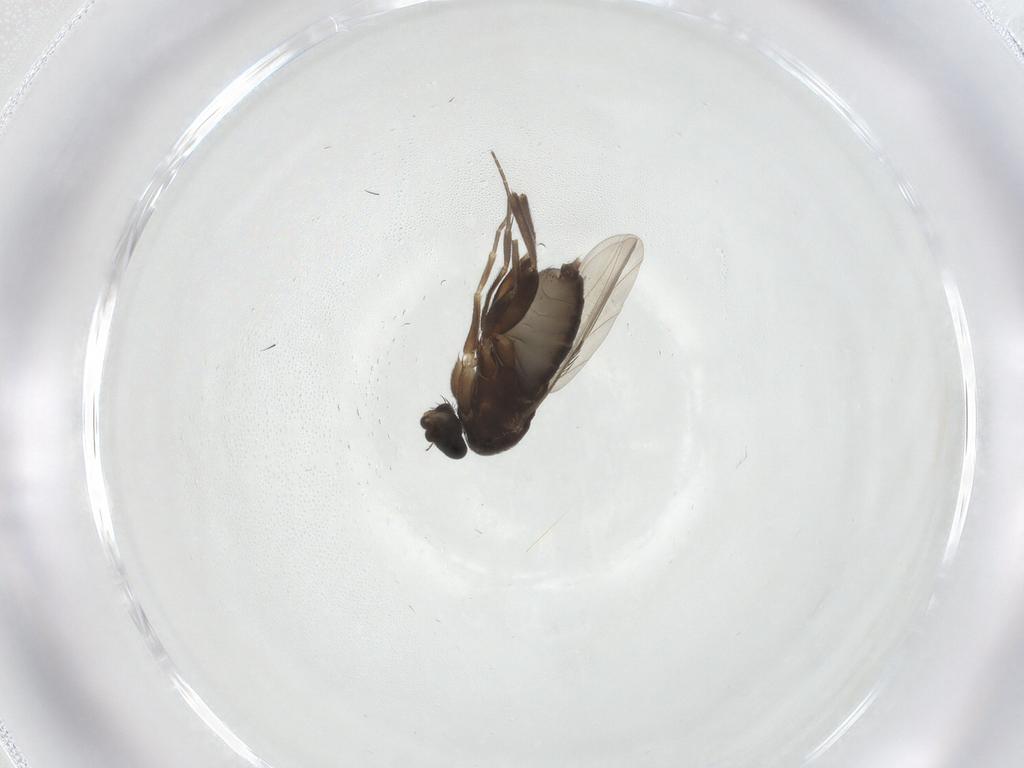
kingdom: Animalia
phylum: Arthropoda
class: Insecta
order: Diptera
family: Phoridae
